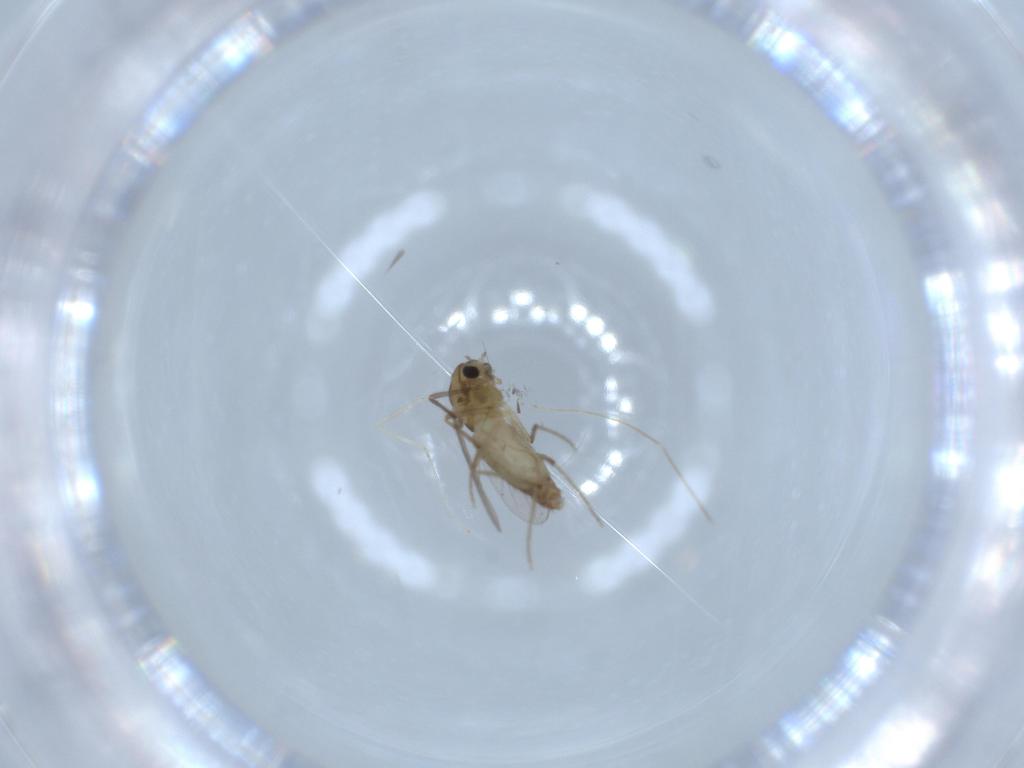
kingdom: Animalia
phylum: Arthropoda
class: Insecta
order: Diptera
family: Chironomidae
